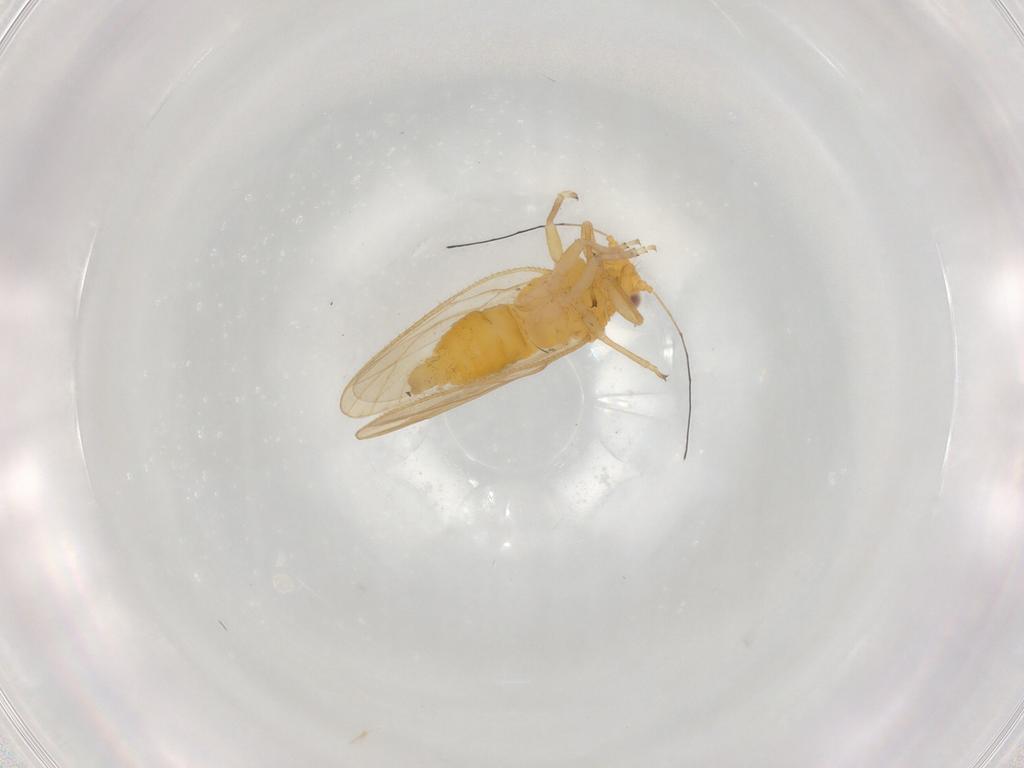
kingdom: Animalia
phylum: Arthropoda
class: Insecta
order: Hemiptera
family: Psyllidae
